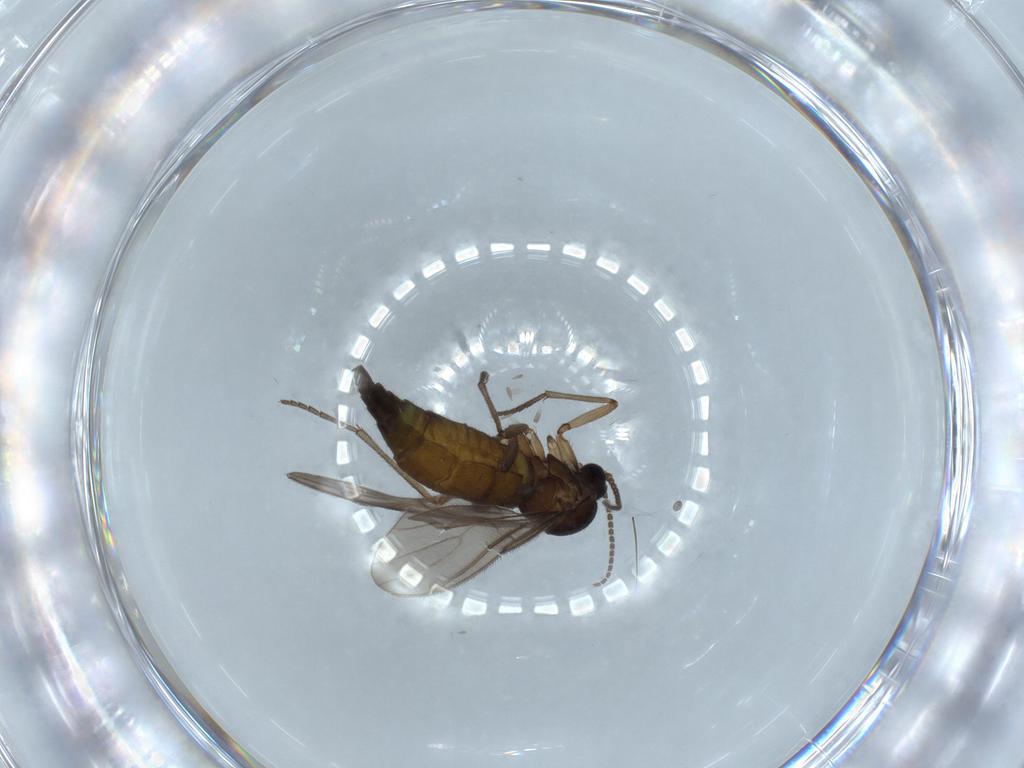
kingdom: Animalia
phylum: Arthropoda
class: Insecta
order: Diptera
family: Sciaridae
